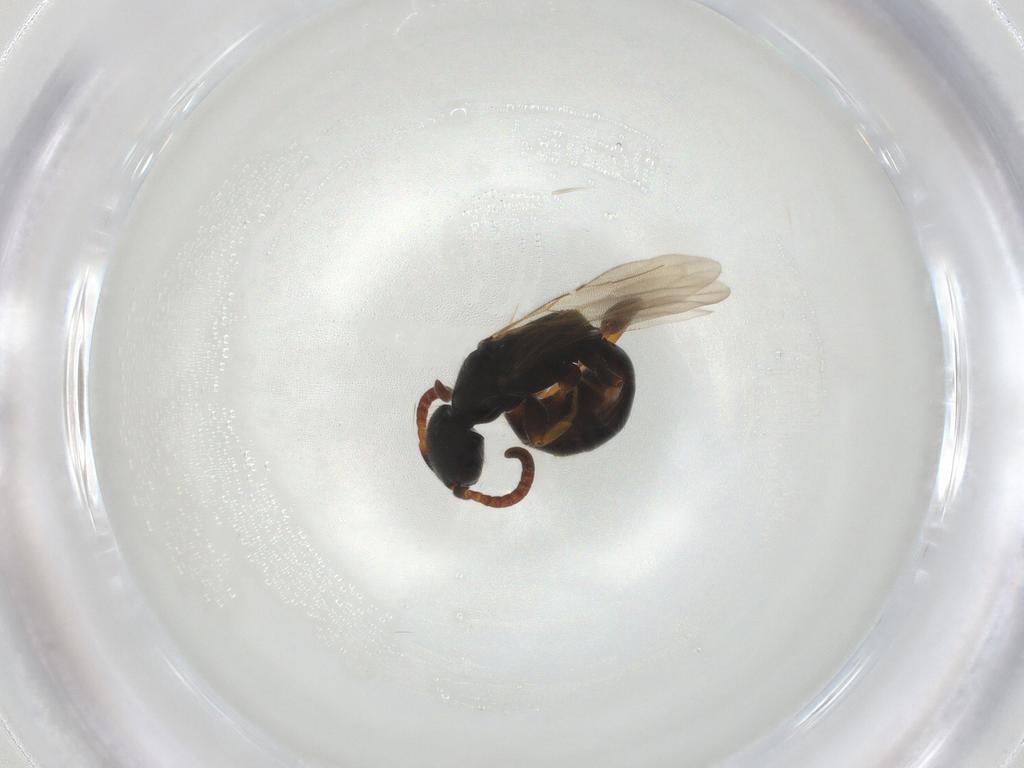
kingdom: Animalia
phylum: Arthropoda
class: Insecta
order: Hymenoptera
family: Bethylidae
